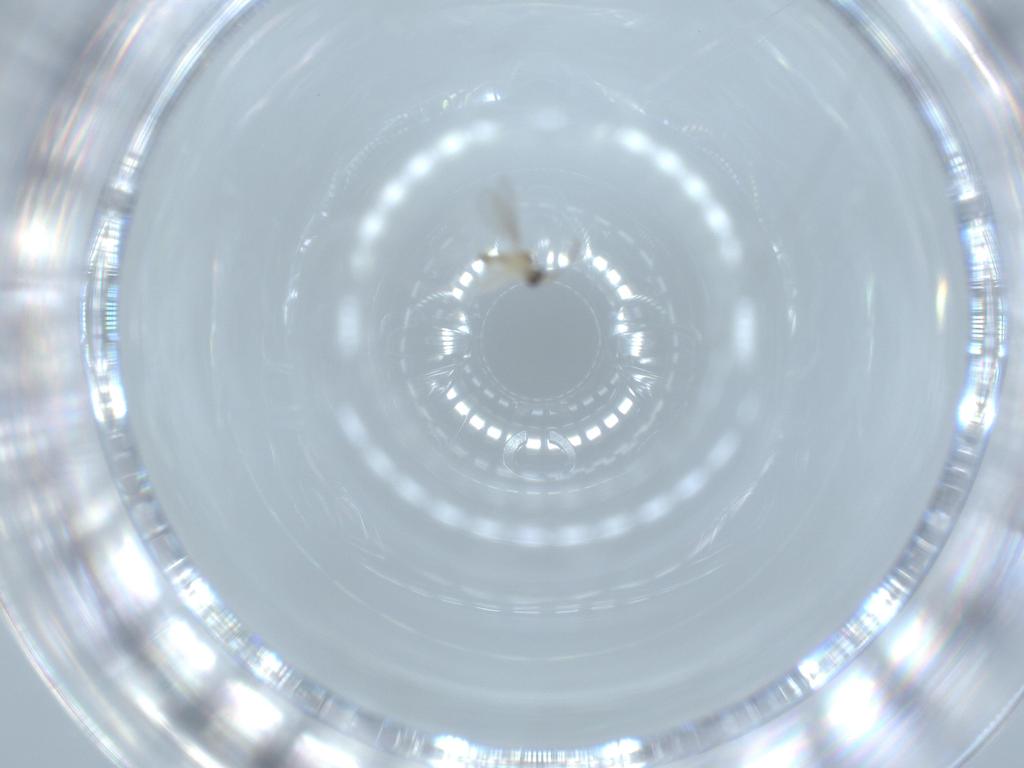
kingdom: Animalia
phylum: Arthropoda
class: Insecta
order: Diptera
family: Cecidomyiidae
